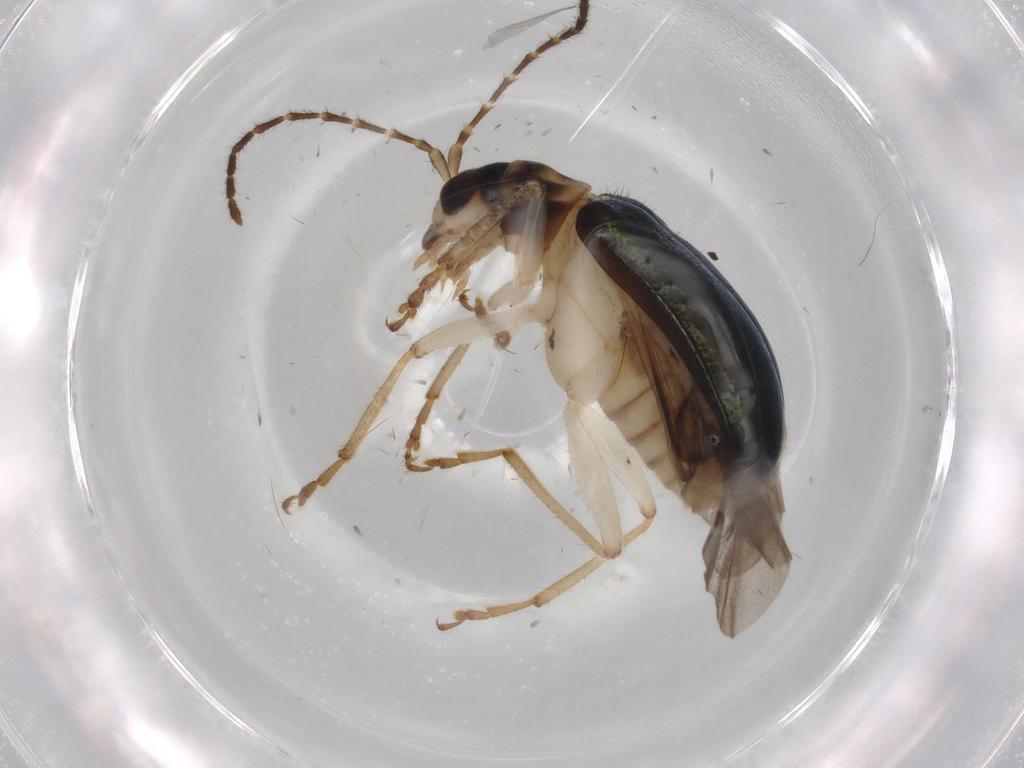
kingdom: Animalia
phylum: Arthropoda
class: Insecta
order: Coleoptera
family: Chrysomelidae
